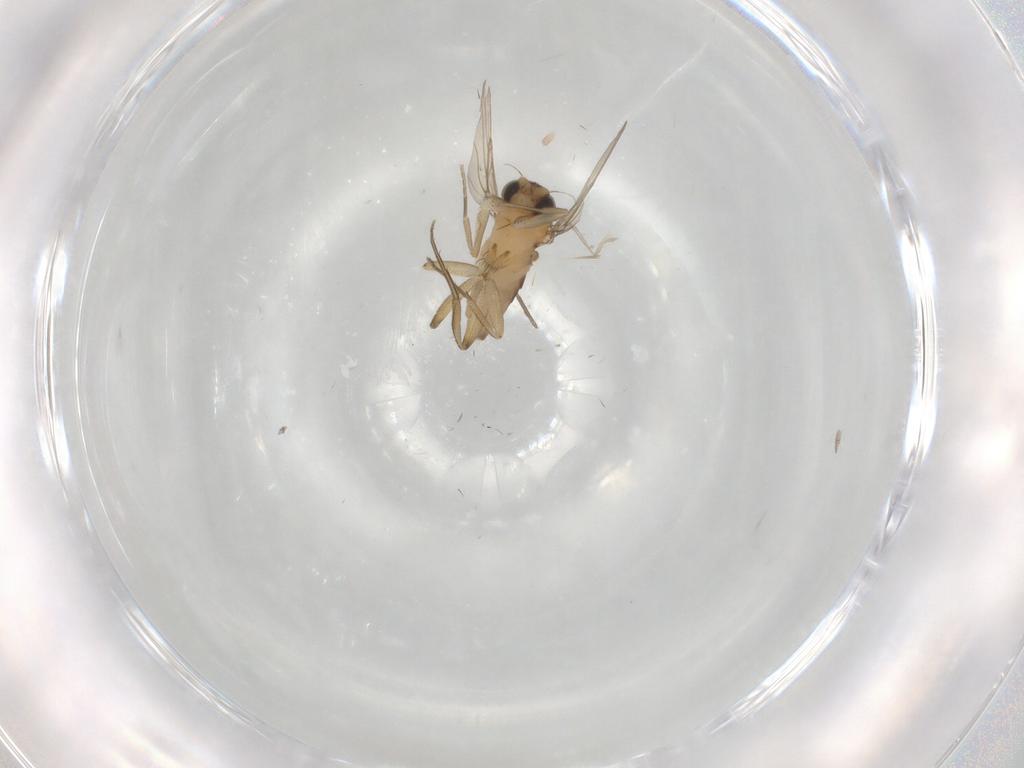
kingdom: Animalia
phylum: Arthropoda
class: Insecta
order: Diptera
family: Phoridae
